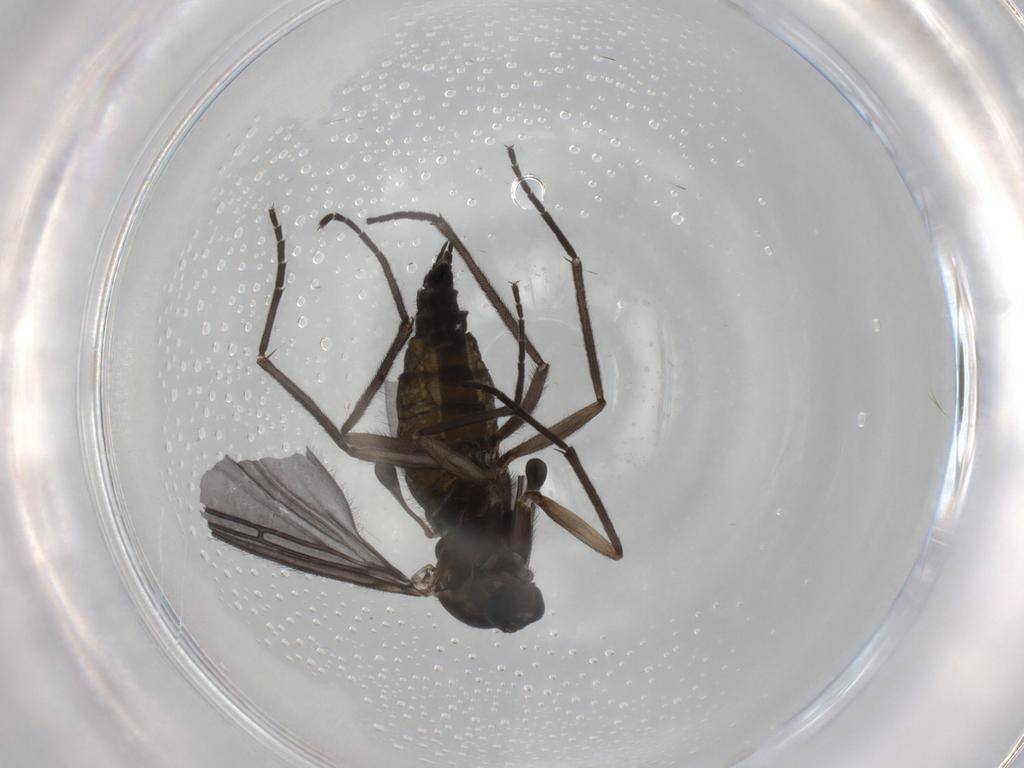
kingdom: Animalia
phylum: Arthropoda
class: Insecta
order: Diptera
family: Sciaridae
